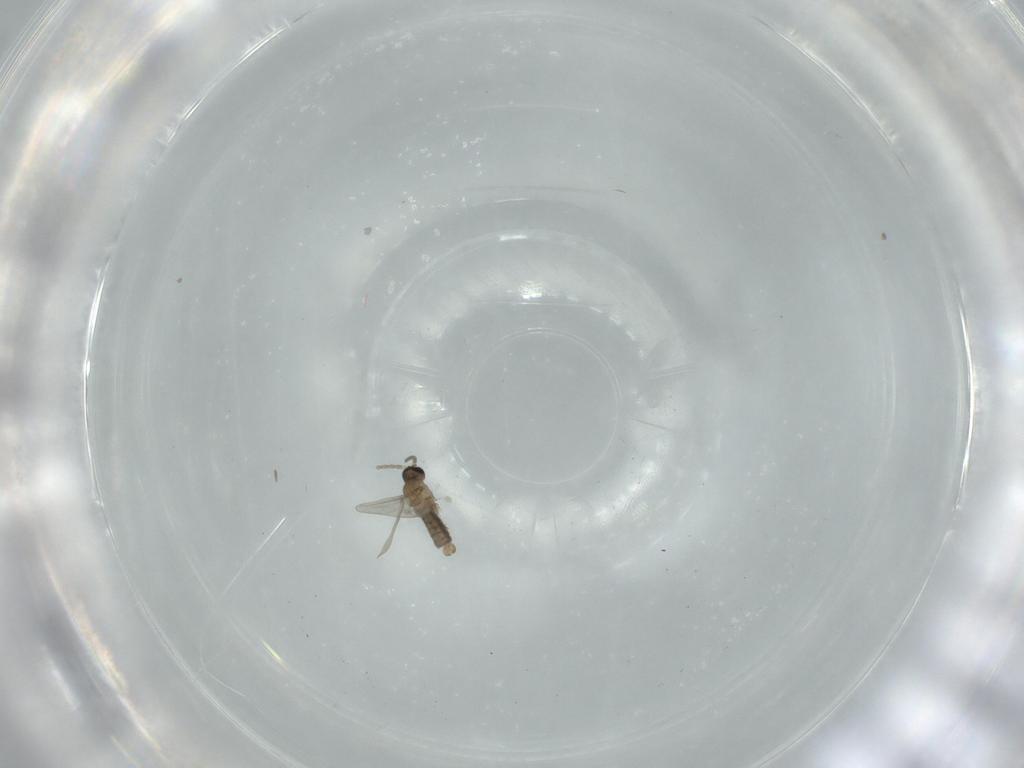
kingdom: Animalia
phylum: Arthropoda
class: Insecta
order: Diptera
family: Cecidomyiidae
